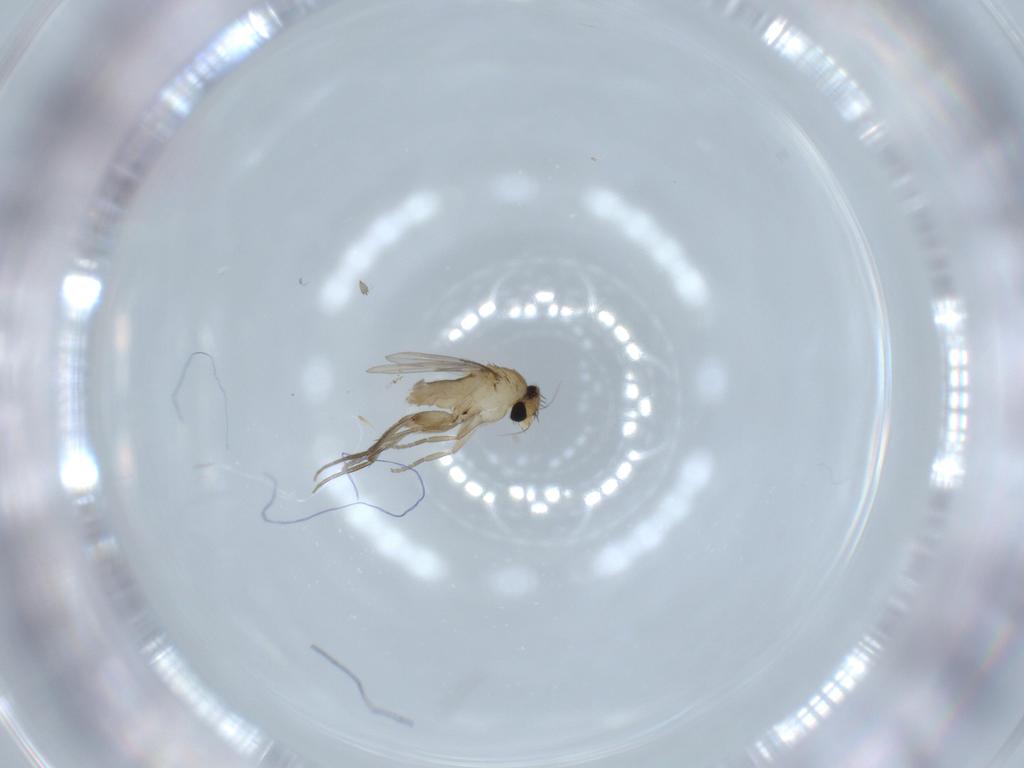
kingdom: Animalia
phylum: Arthropoda
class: Insecta
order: Diptera
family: Phoridae
